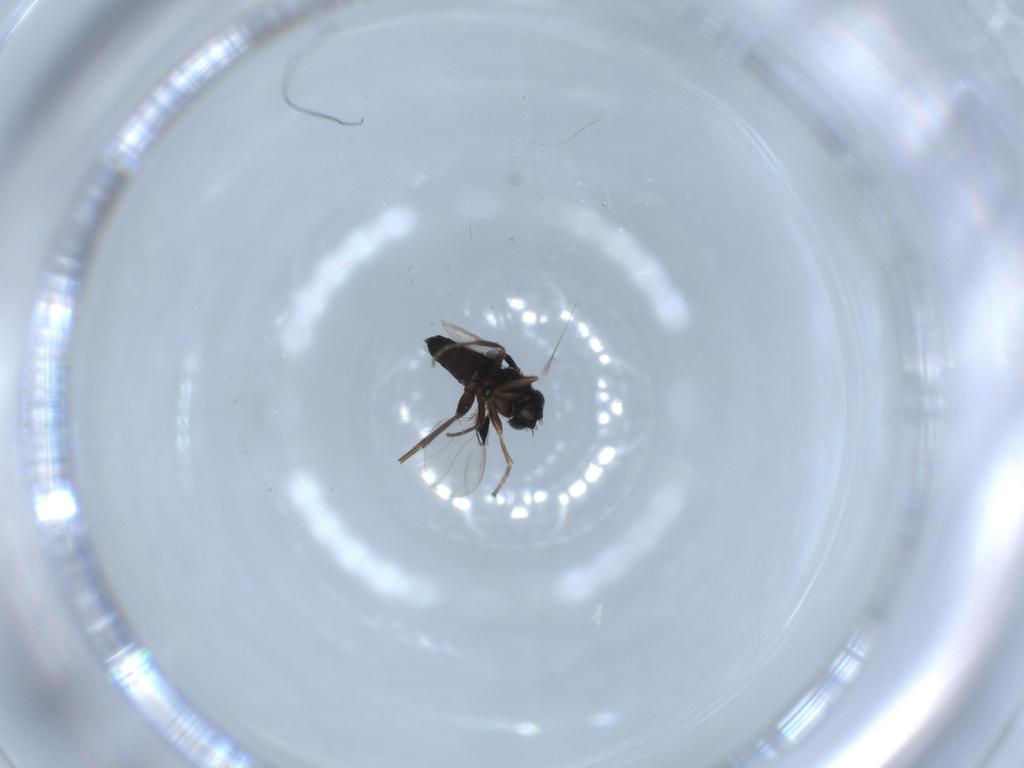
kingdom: Animalia
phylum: Arthropoda
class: Insecta
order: Diptera
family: Phoridae
